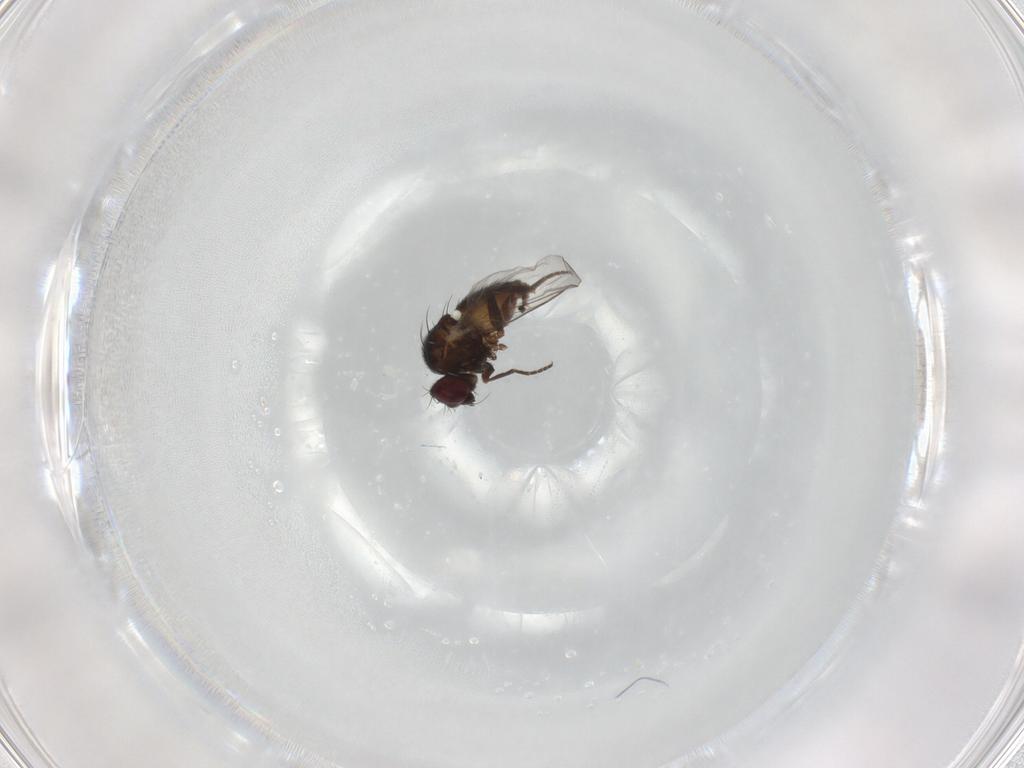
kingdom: Animalia
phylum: Arthropoda
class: Insecta
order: Diptera
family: Agromyzidae
